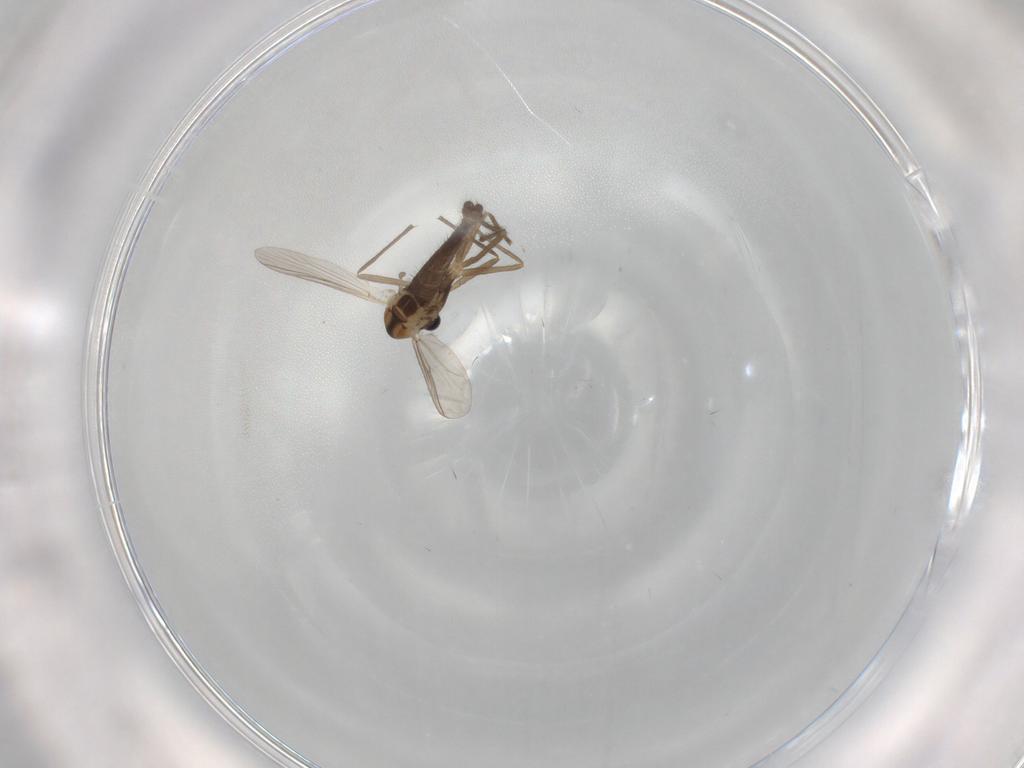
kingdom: Animalia
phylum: Arthropoda
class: Insecta
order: Diptera
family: Chironomidae
